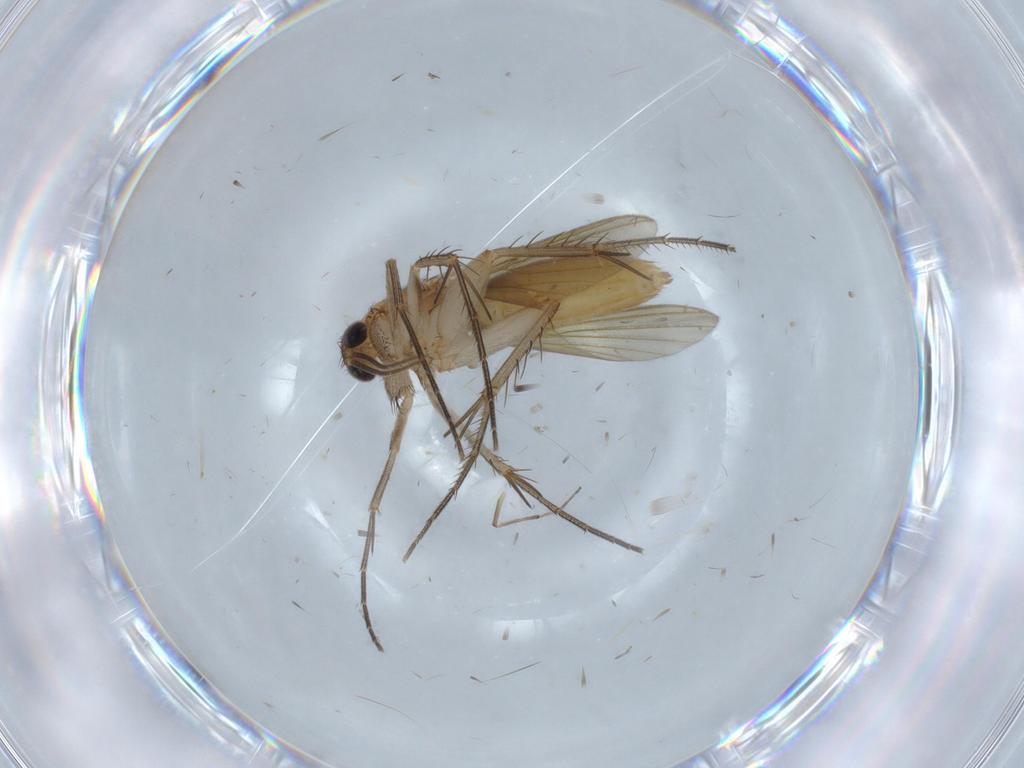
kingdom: Animalia
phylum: Arthropoda
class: Insecta
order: Diptera
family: Mycetophilidae
